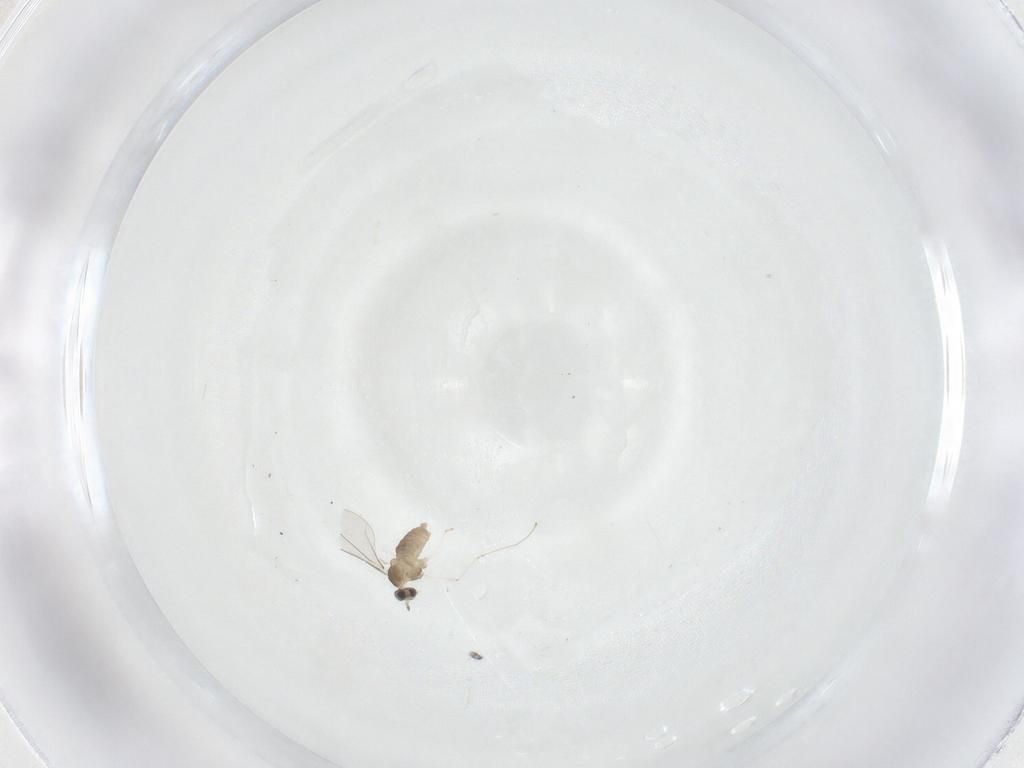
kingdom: Animalia
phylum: Arthropoda
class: Insecta
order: Diptera
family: Cecidomyiidae
